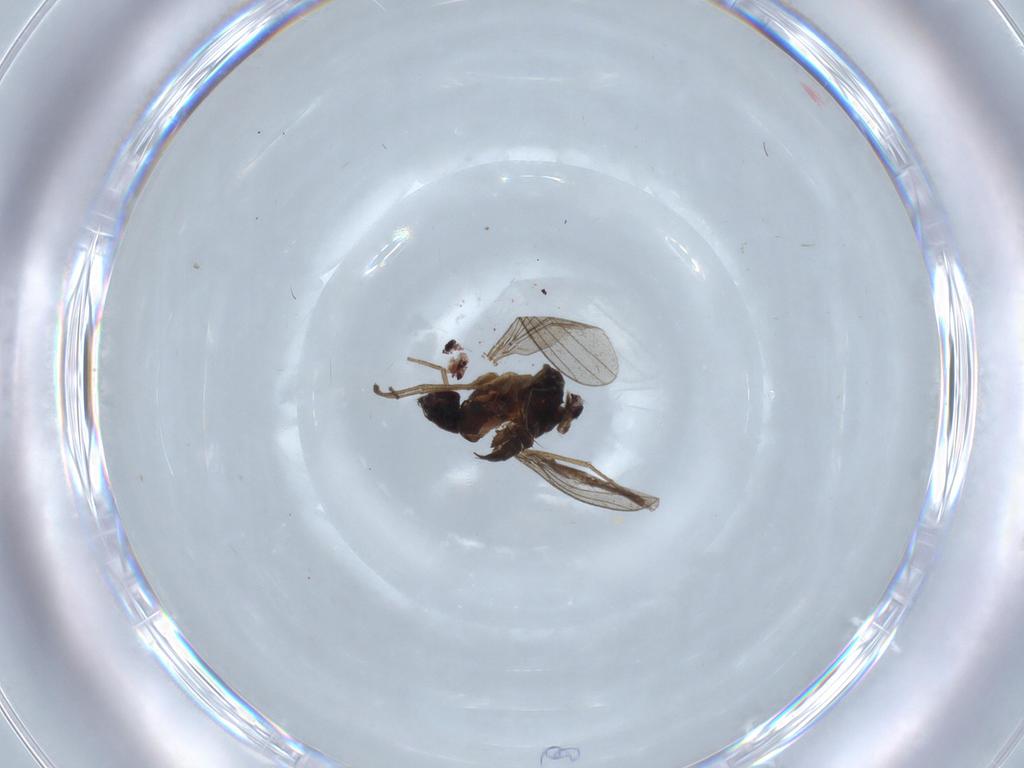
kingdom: Animalia
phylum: Arthropoda
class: Insecta
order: Diptera
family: Dolichopodidae
